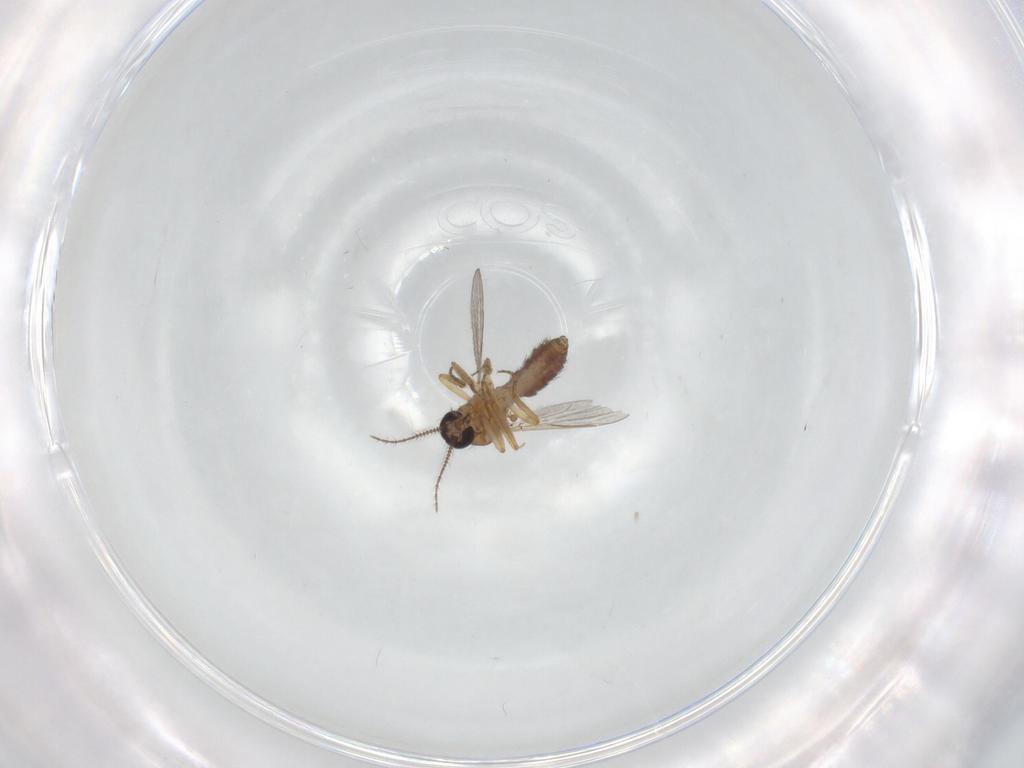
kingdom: Animalia
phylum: Arthropoda
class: Insecta
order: Diptera
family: Ceratopogonidae
